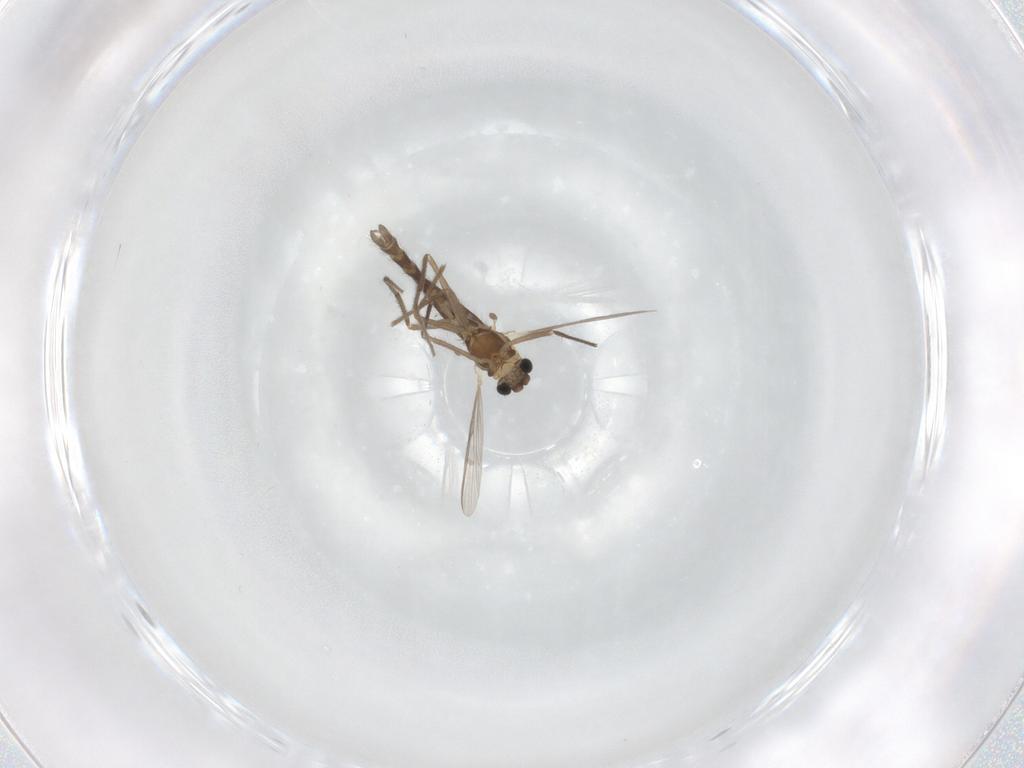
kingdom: Animalia
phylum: Arthropoda
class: Insecta
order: Diptera
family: Chironomidae
